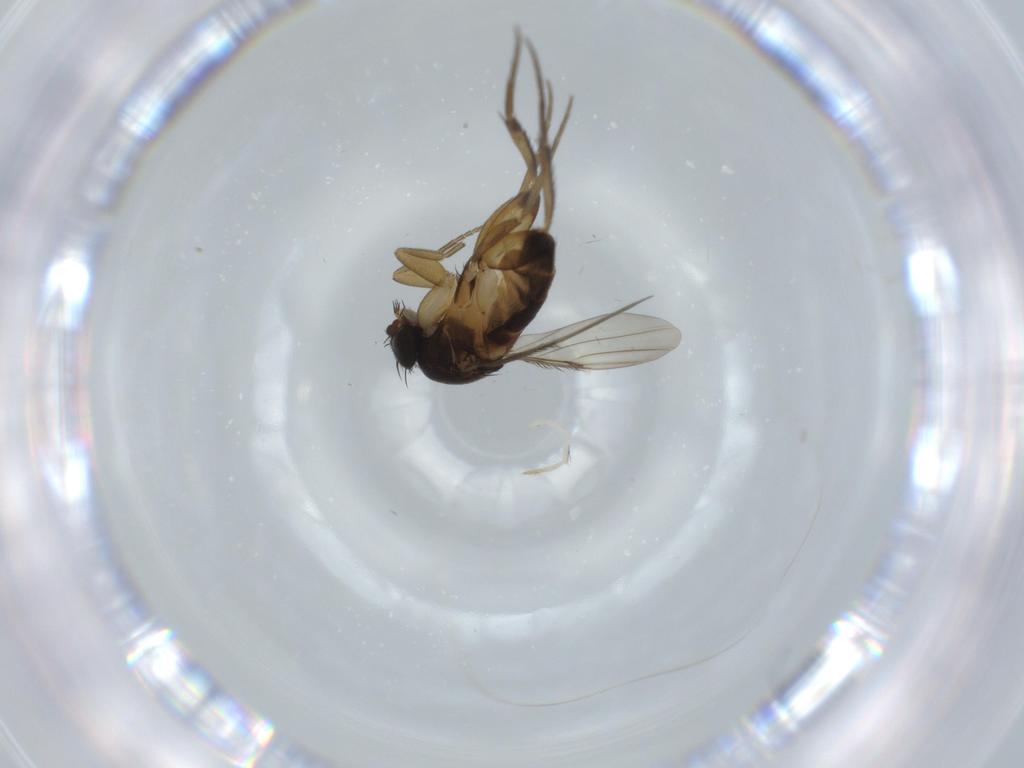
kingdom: Animalia
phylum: Arthropoda
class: Insecta
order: Diptera
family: Phoridae
